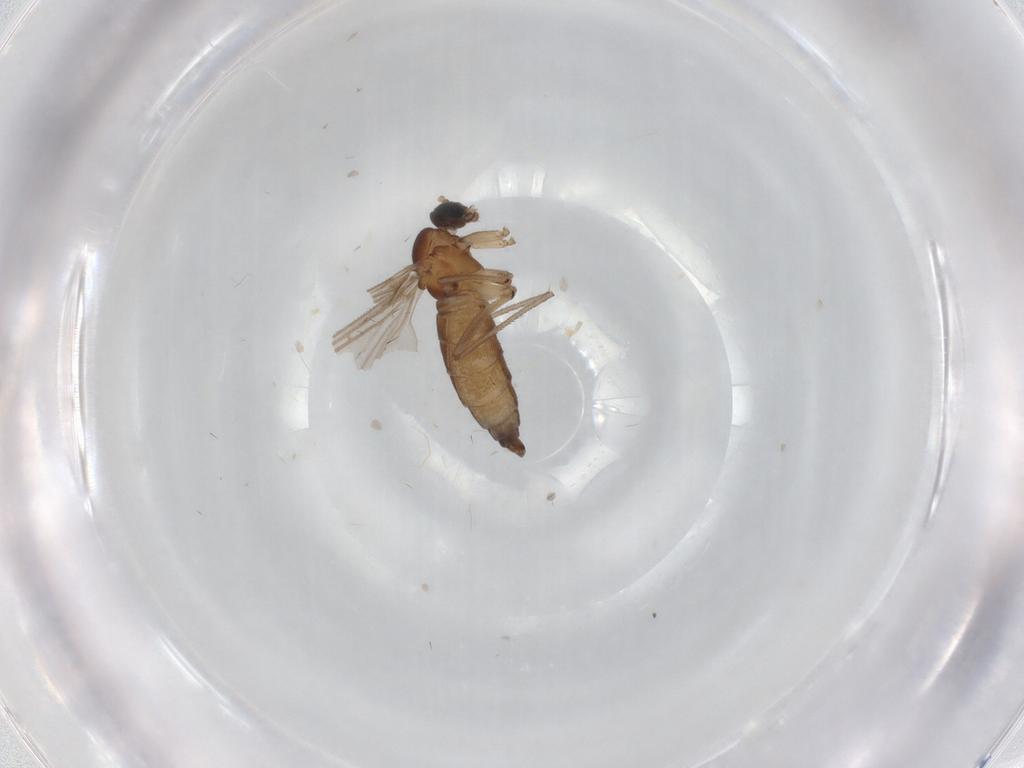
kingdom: Animalia
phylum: Arthropoda
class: Insecta
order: Diptera
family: Sciaridae
